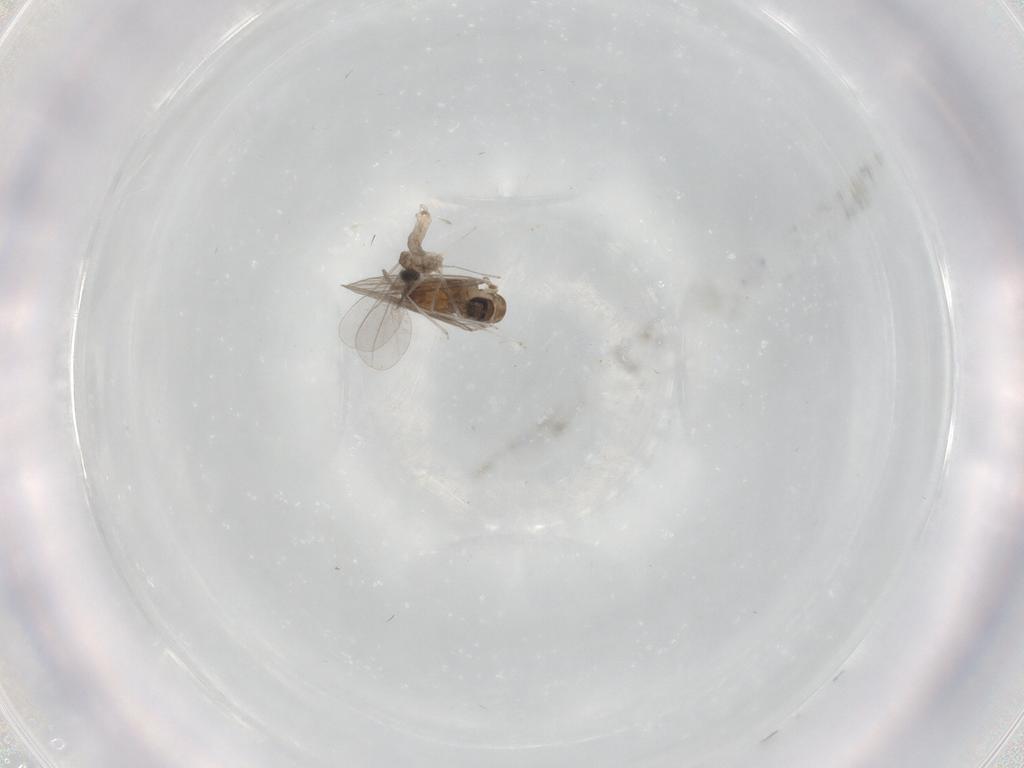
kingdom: Animalia
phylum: Arthropoda
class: Insecta
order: Diptera
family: Psychodidae
